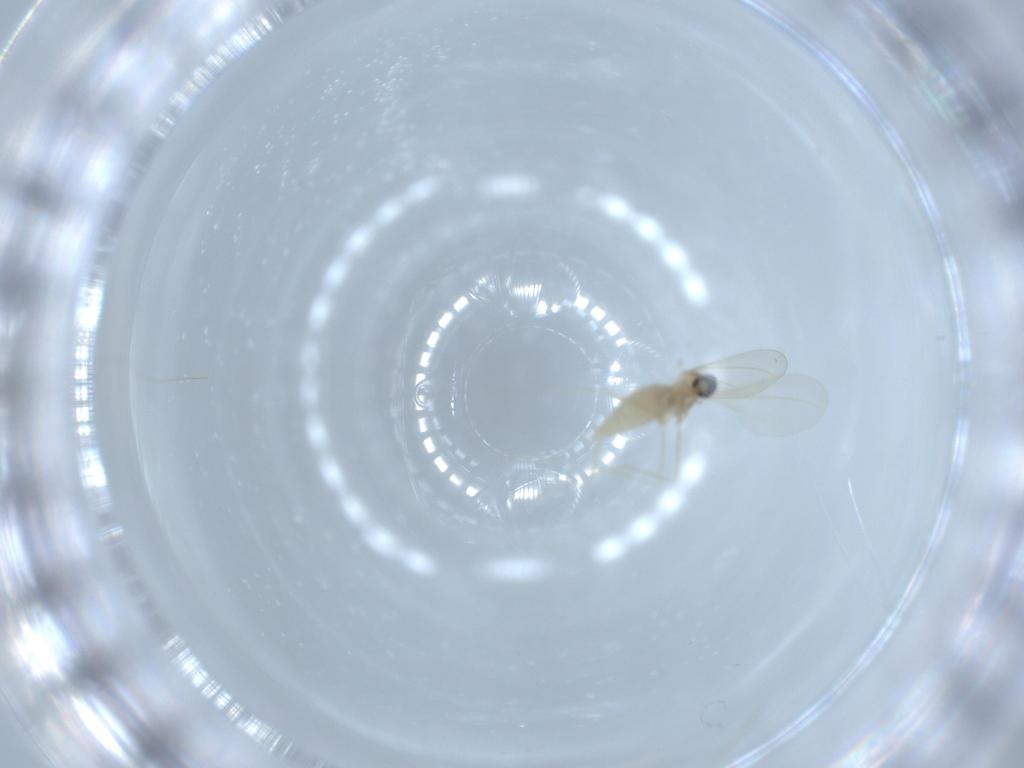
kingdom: Animalia
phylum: Arthropoda
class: Insecta
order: Diptera
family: Cecidomyiidae
